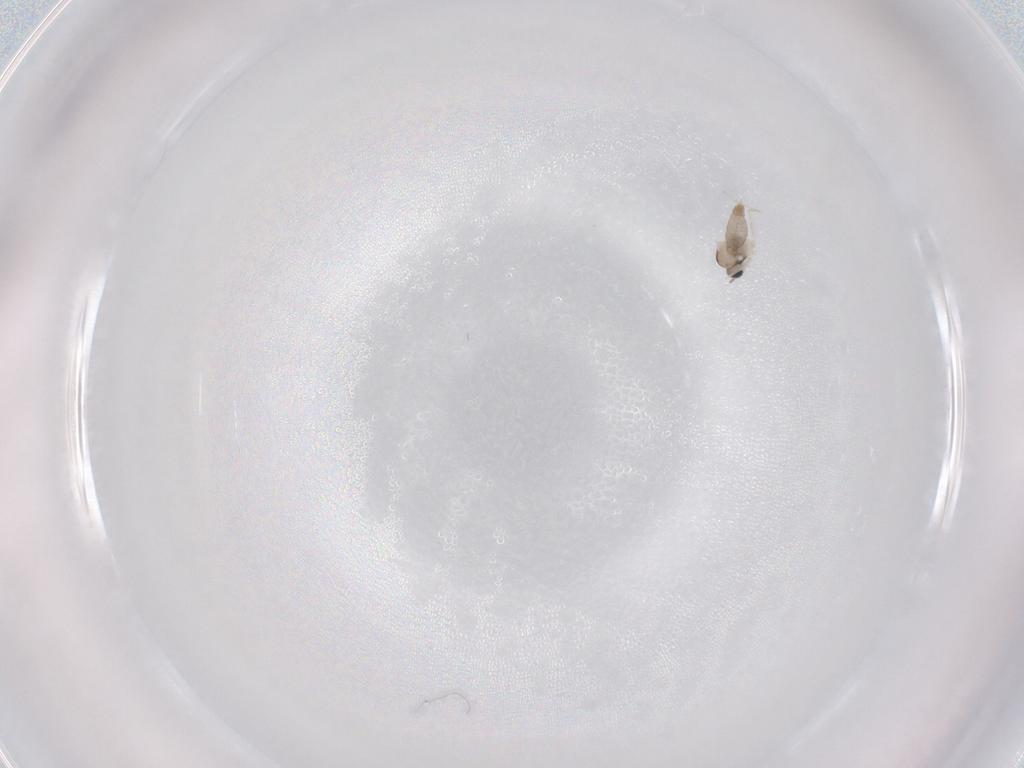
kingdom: Animalia
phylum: Arthropoda
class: Insecta
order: Diptera
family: Cecidomyiidae
